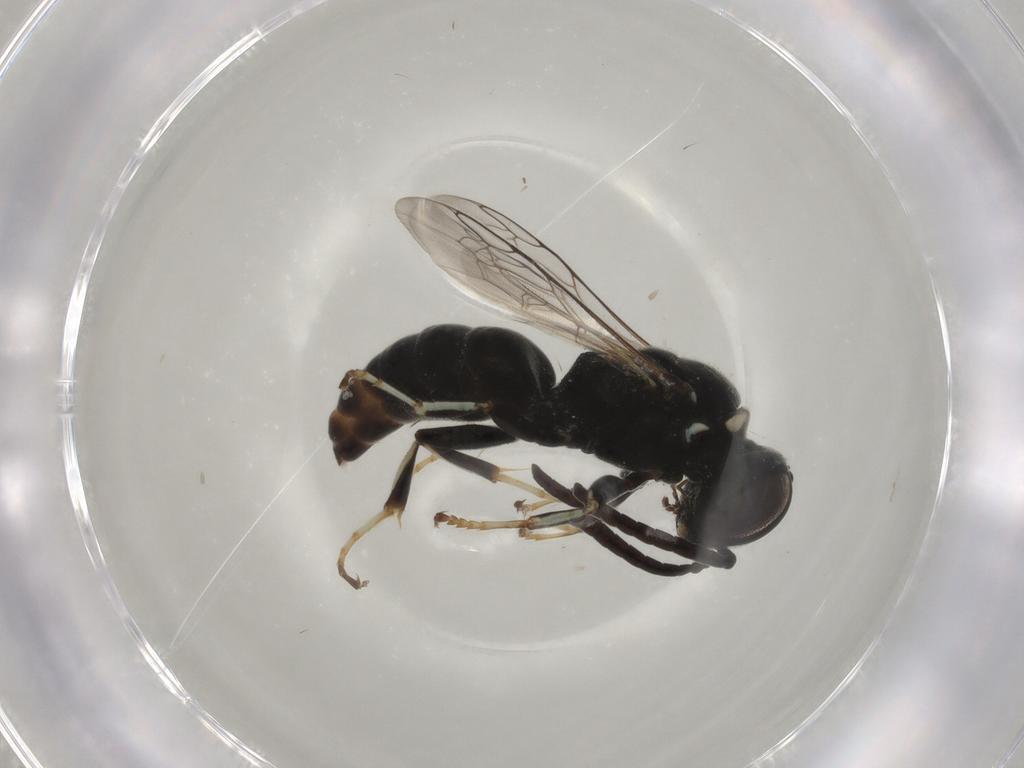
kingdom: Animalia
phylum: Arthropoda
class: Insecta
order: Hymenoptera
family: Crabronidae
